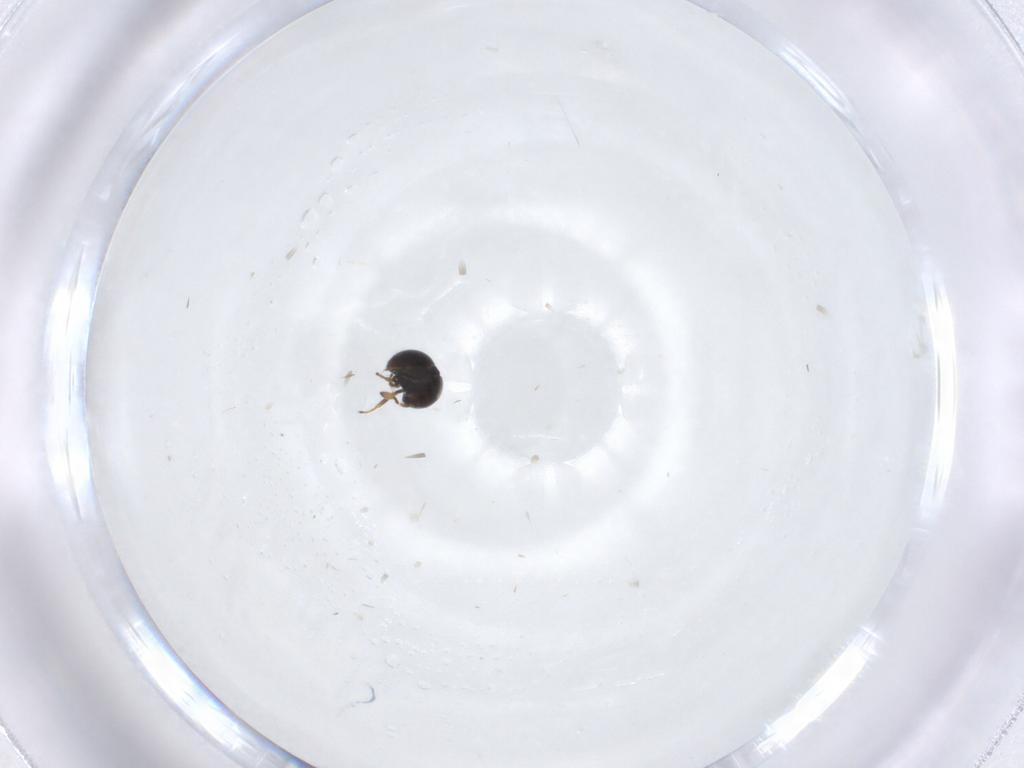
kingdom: Animalia
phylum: Arthropoda
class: Insecta
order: Hymenoptera
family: Scelionidae
